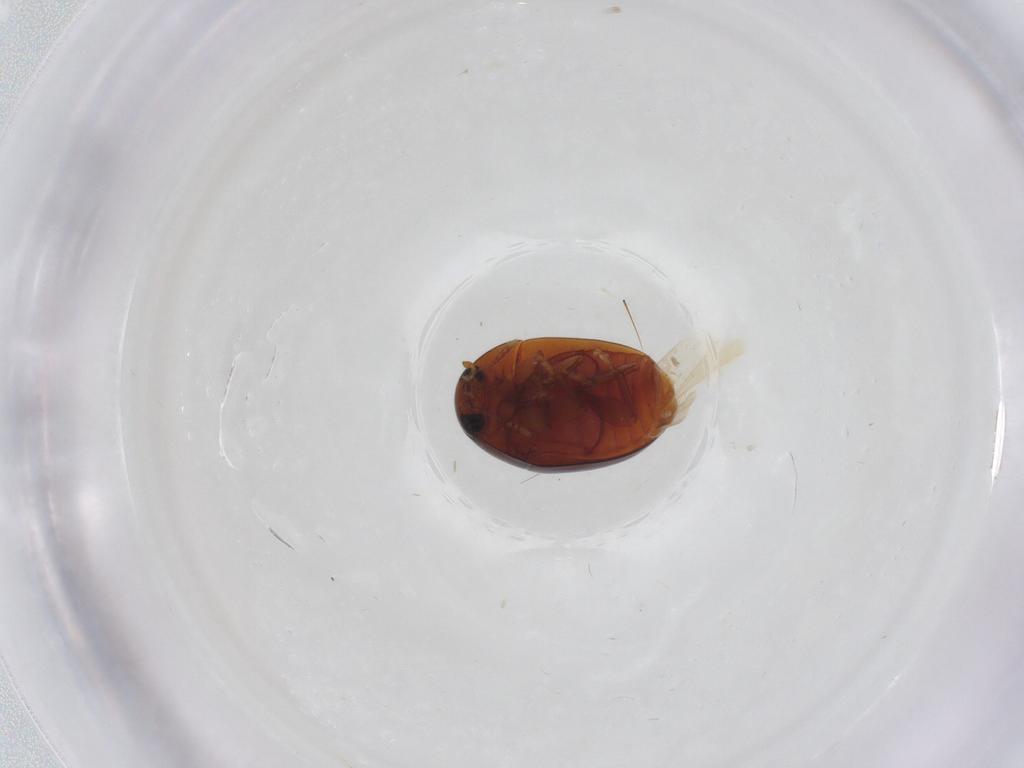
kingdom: Animalia
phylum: Arthropoda
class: Insecta
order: Coleoptera
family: Phalacridae
